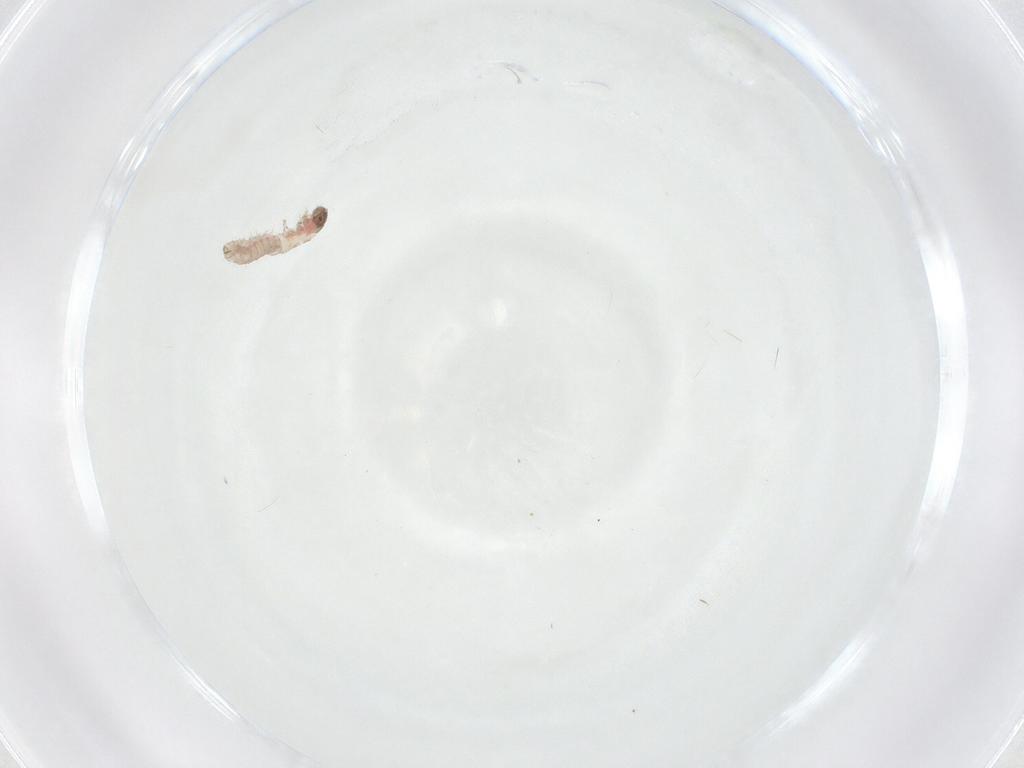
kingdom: Animalia
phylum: Arthropoda
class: Insecta
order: Lepidoptera
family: Gelechiidae
